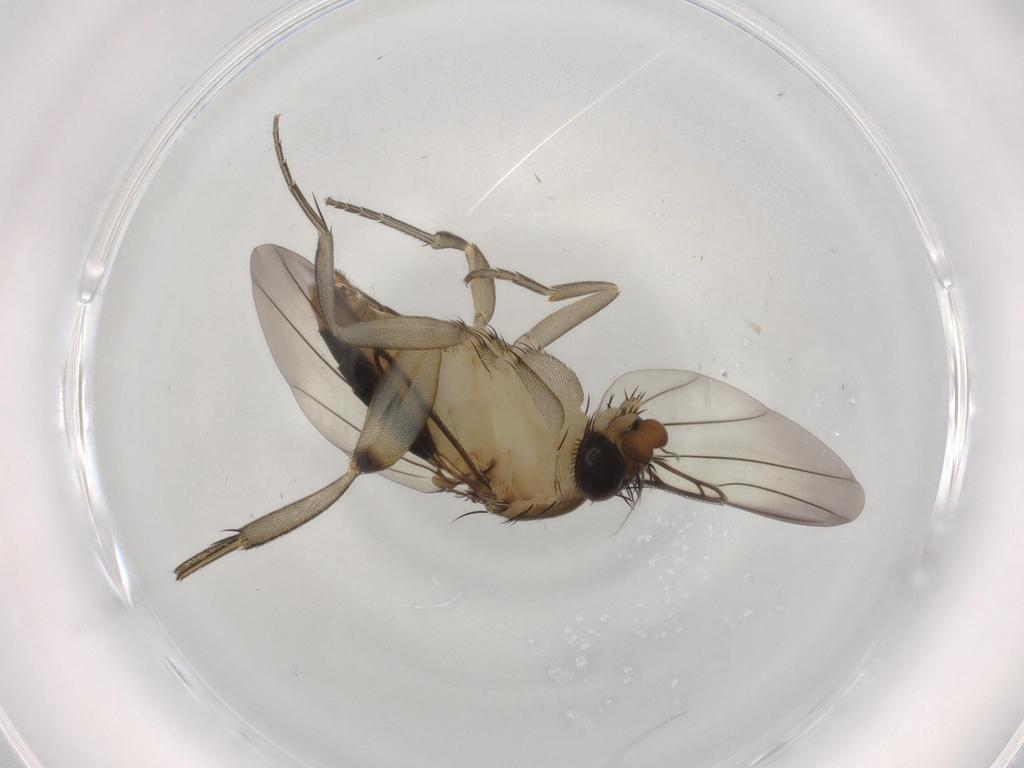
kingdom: Animalia
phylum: Arthropoda
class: Insecta
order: Diptera
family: Phoridae
